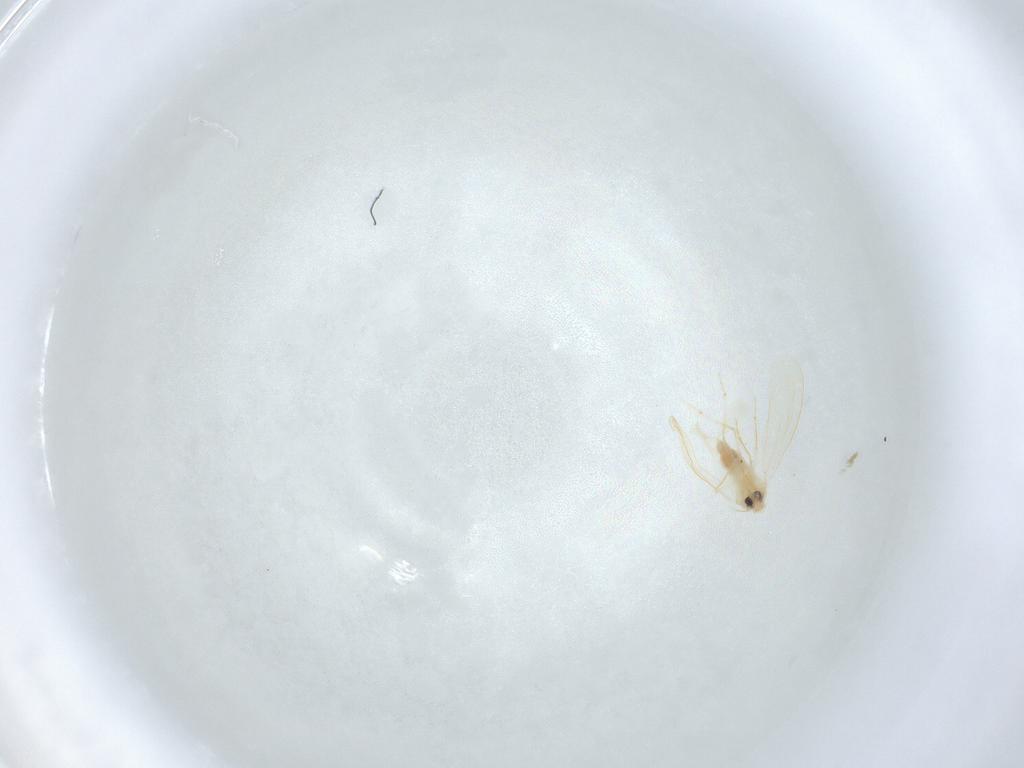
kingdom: Animalia
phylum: Arthropoda
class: Insecta
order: Hemiptera
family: Aleyrodidae
